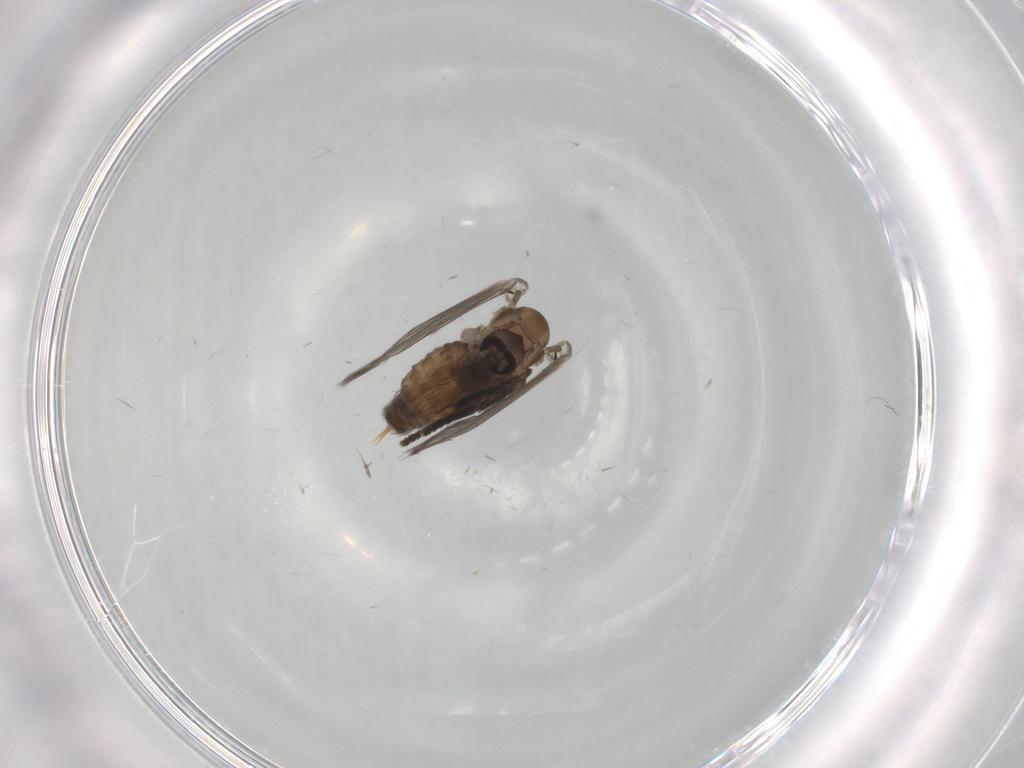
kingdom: Animalia
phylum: Arthropoda
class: Insecta
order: Diptera
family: Psychodidae
